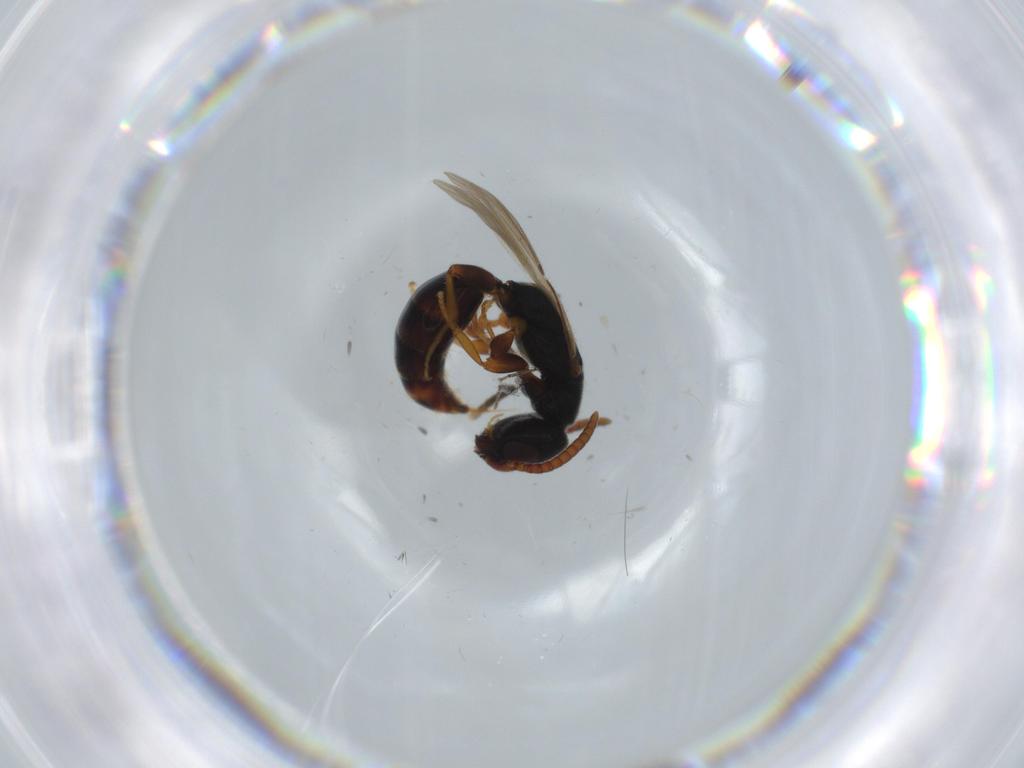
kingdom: Animalia
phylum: Arthropoda
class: Insecta
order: Hymenoptera
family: Bethylidae
